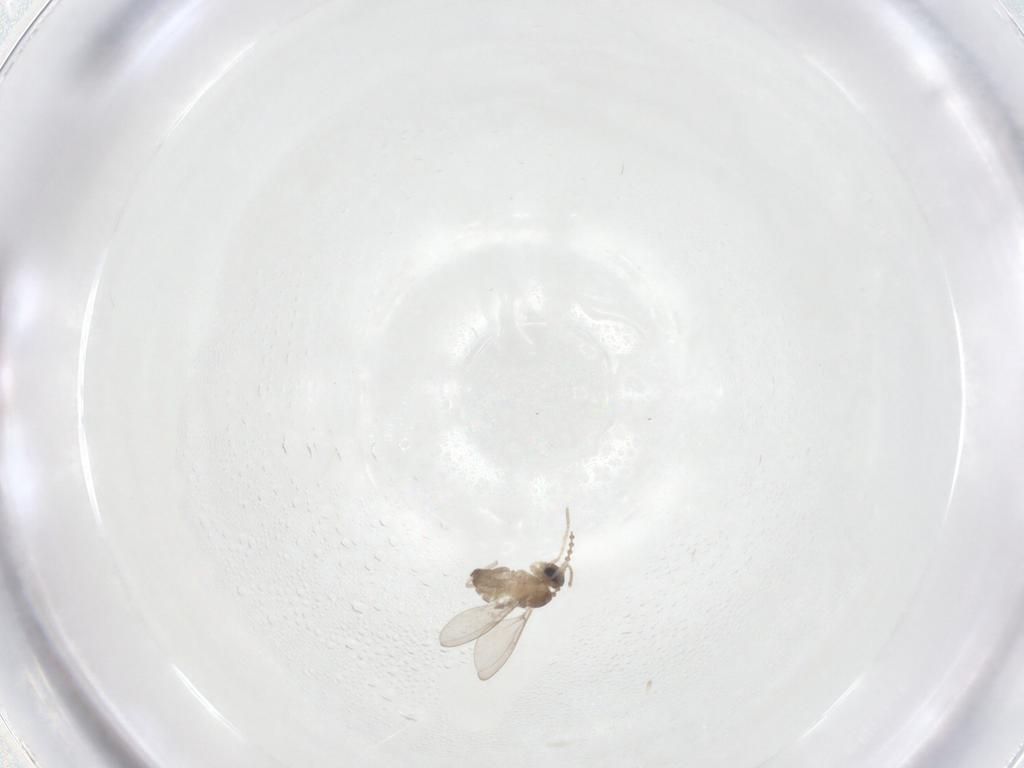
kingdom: Animalia
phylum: Arthropoda
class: Insecta
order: Diptera
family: Cecidomyiidae
